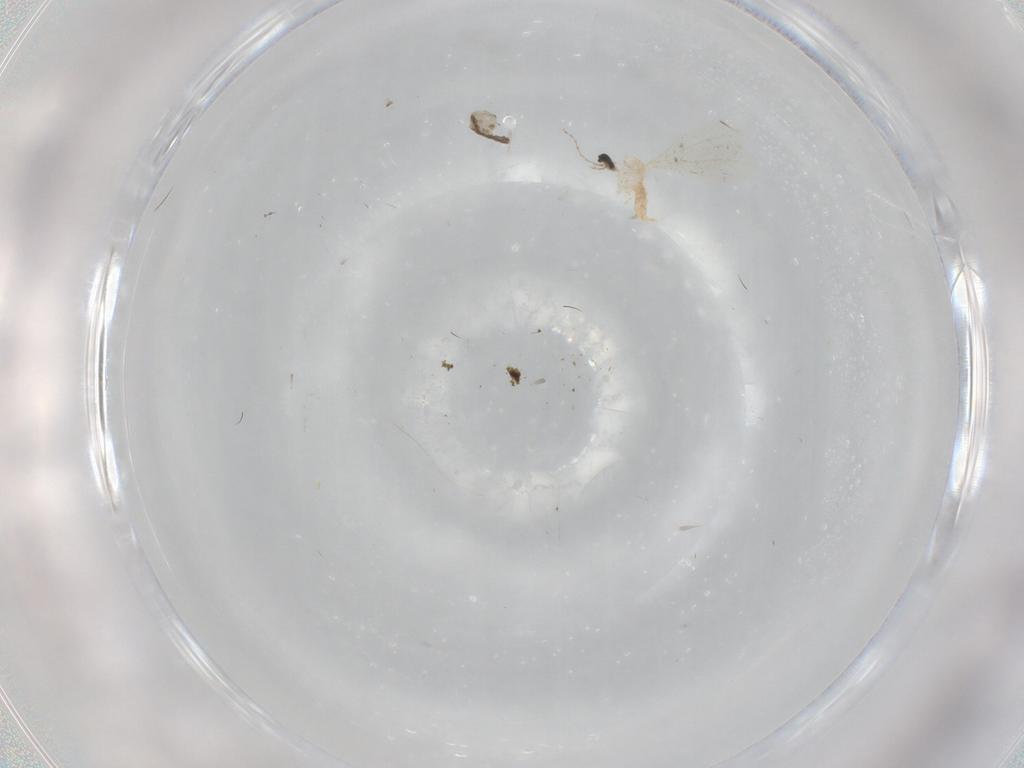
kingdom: Animalia
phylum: Arthropoda
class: Insecta
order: Diptera
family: Cecidomyiidae
